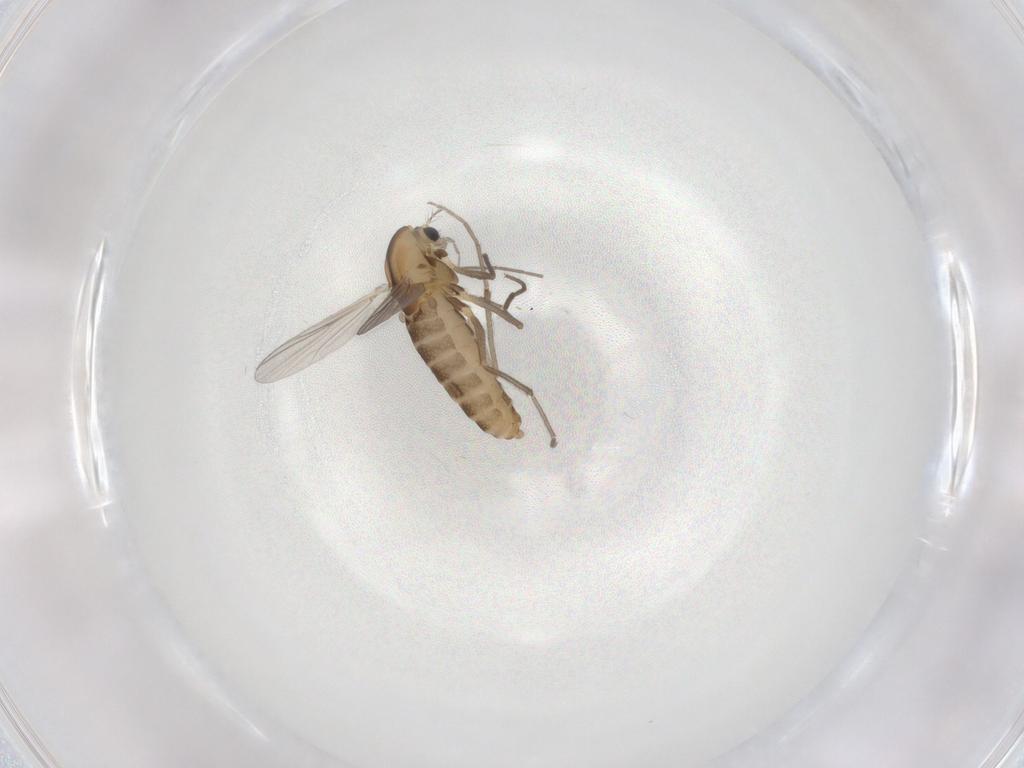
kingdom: Animalia
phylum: Arthropoda
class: Insecta
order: Diptera
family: Chironomidae
